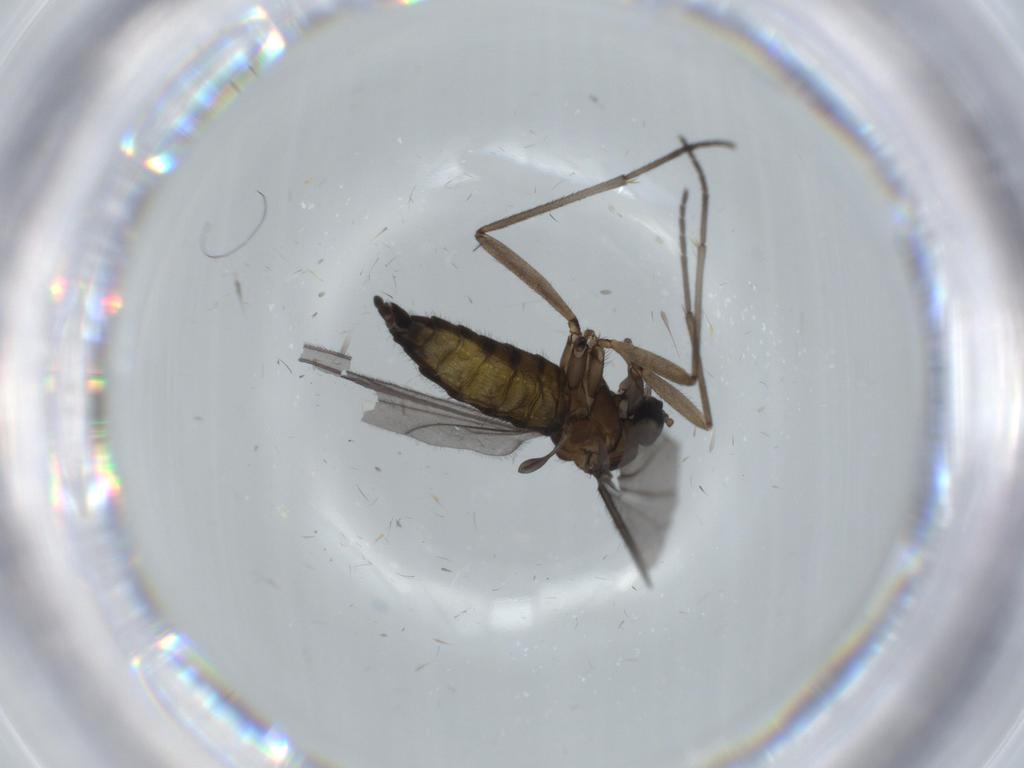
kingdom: Animalia
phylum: Arthropoda
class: Insecta
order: Diptera
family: Sciaridae
